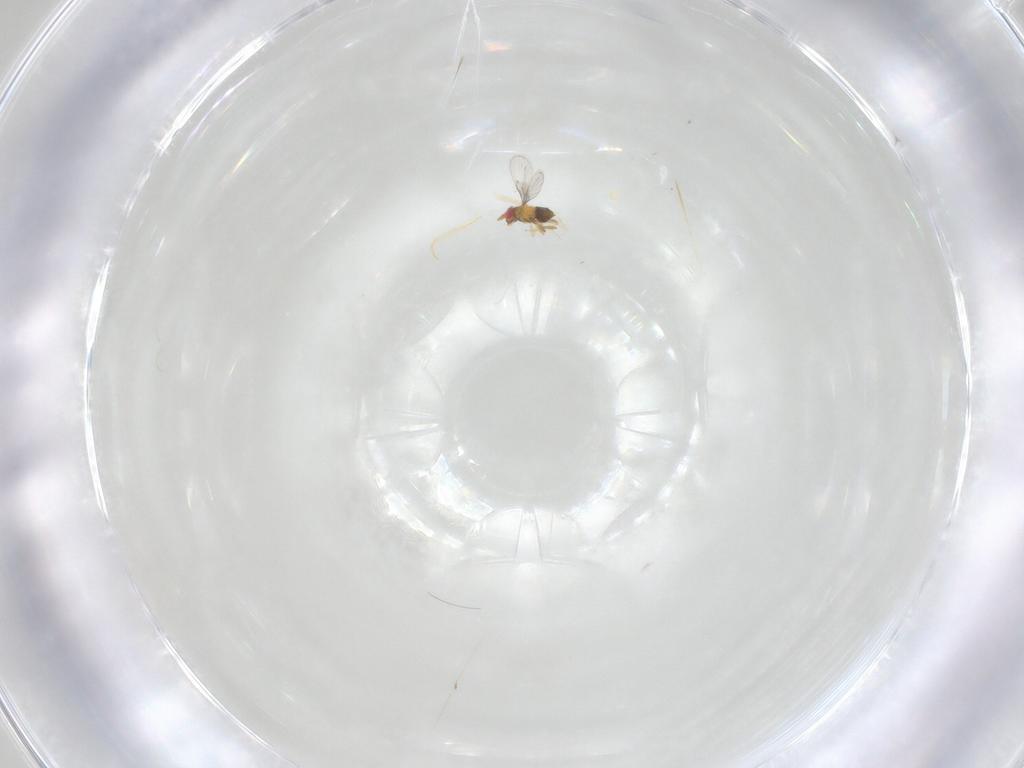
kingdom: Animalia
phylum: Arthropoda
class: Insecta
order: Hymenoptera
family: Trichogrammatidae
